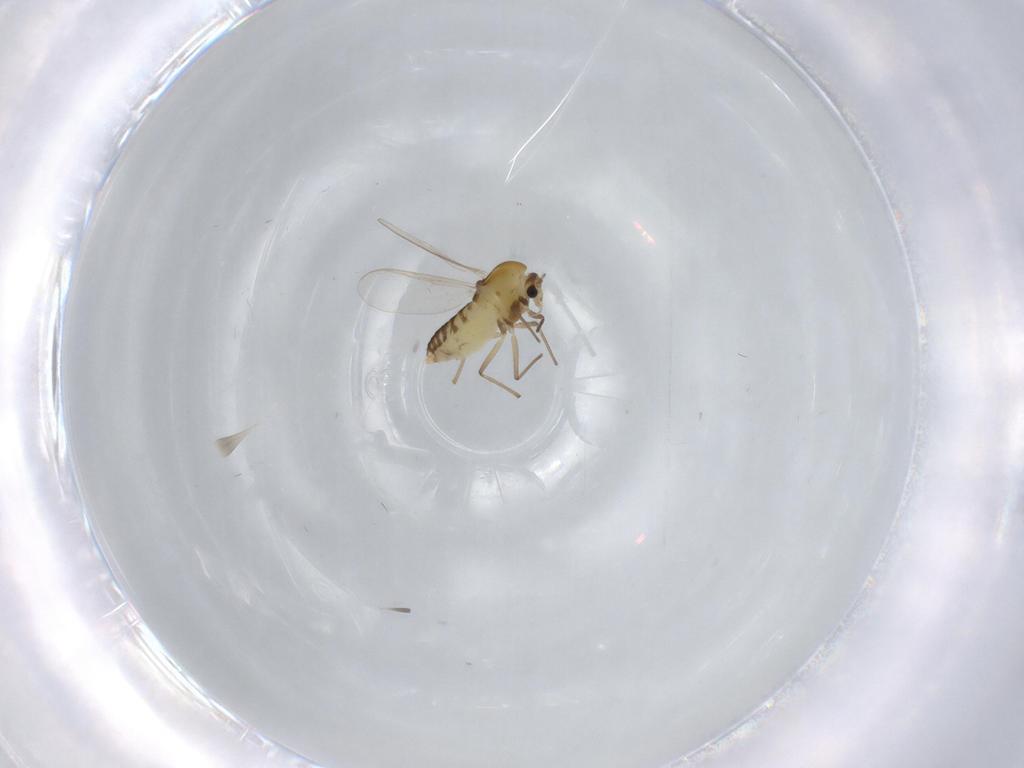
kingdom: Animalia
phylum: Arthropoda
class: Insecta
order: Diptera
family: Chironomidae
